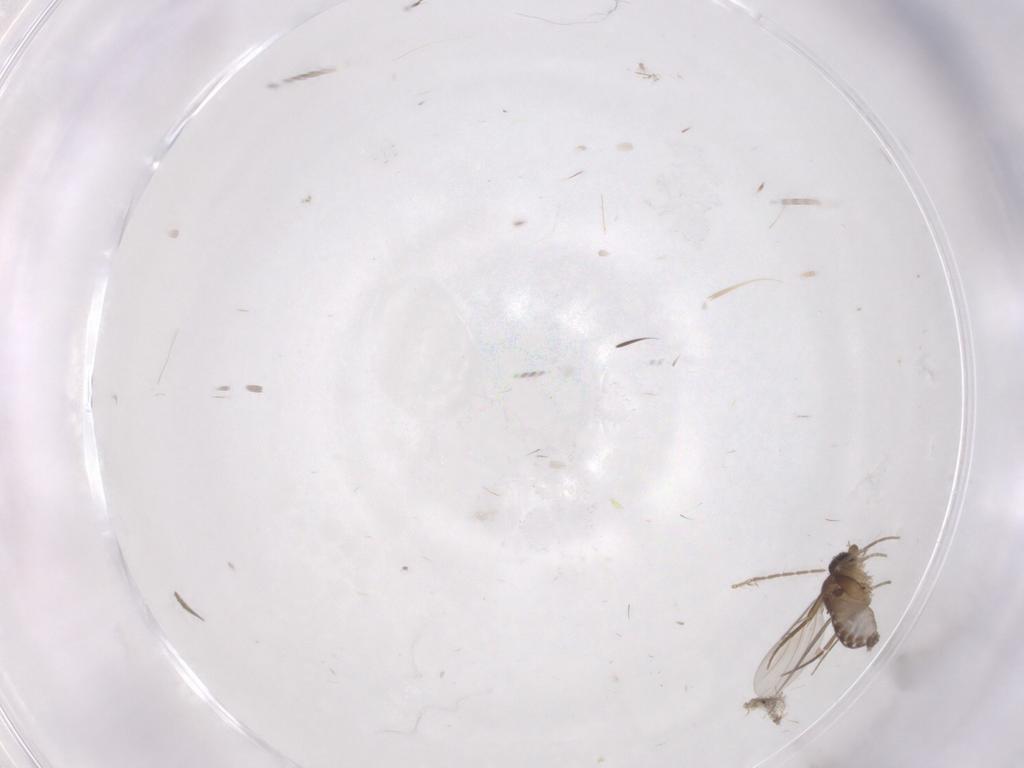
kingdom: Animalia
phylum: Arthropoda
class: Insecta
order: Diptera
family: Phoridae
